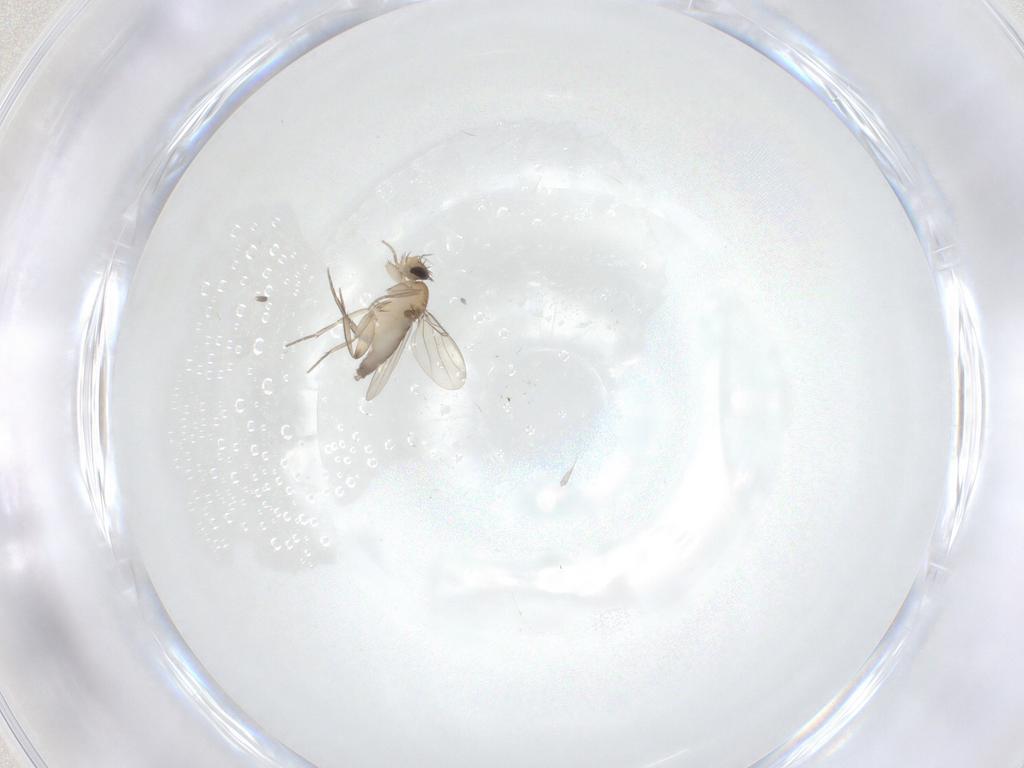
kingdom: Animalia
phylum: Arthropoda
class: Insecta
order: Diptera
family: Phoridae
